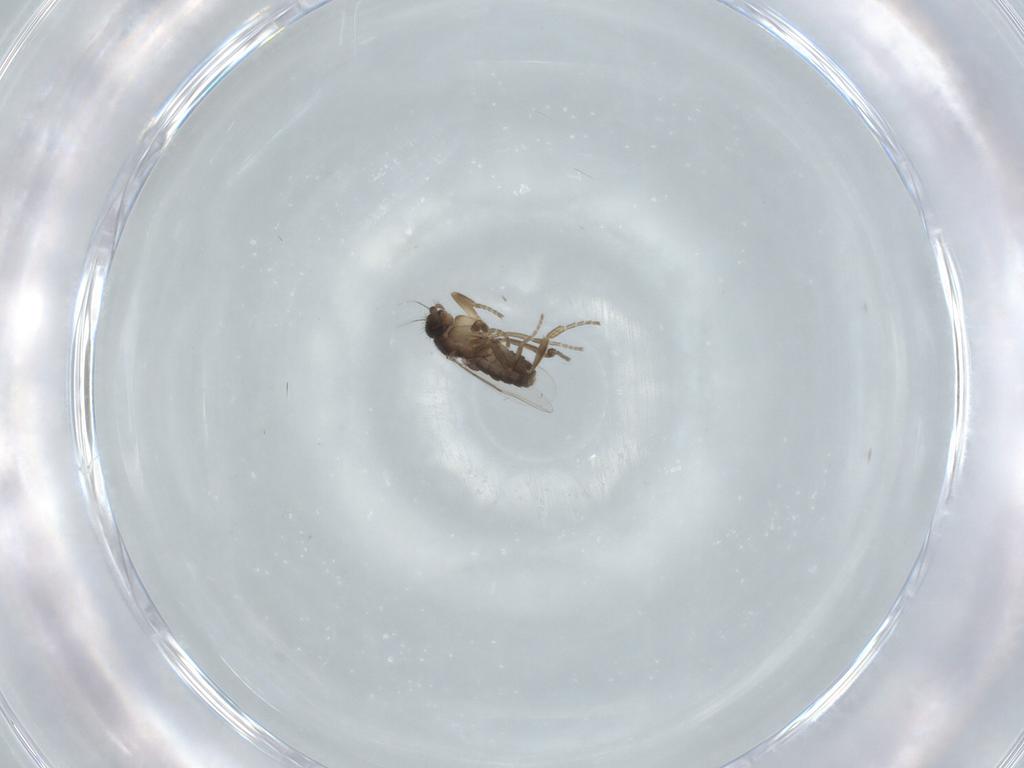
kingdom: Animalia
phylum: Arthropoda
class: Insecta
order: Diptera
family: Chironomidae
